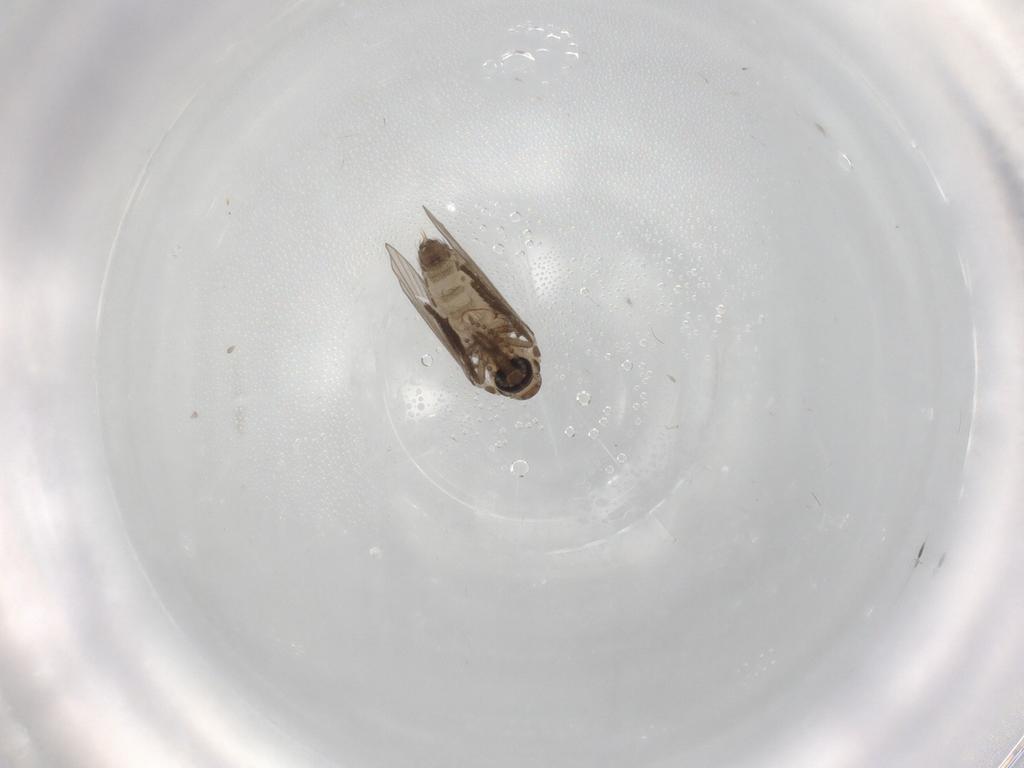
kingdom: Animalia
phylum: Arthropoda
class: Insecta
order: Diptera
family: Psychodidae
